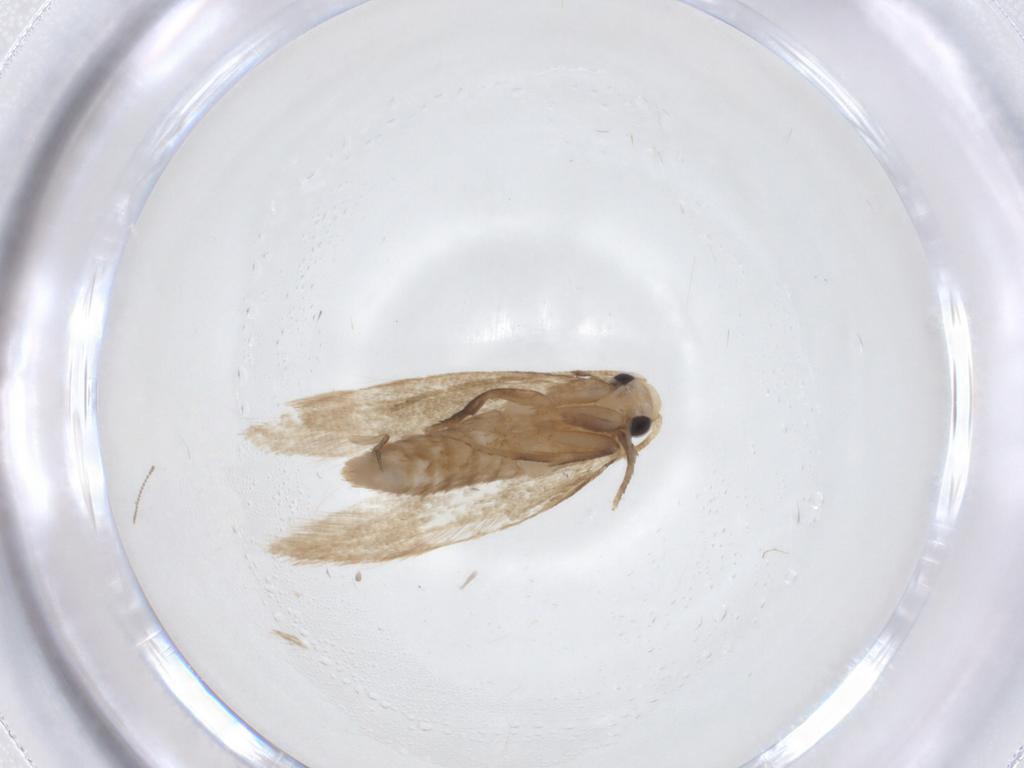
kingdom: Animalia
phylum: Arthropoda
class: Insecta
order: Lepidoptera
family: Tineidae
